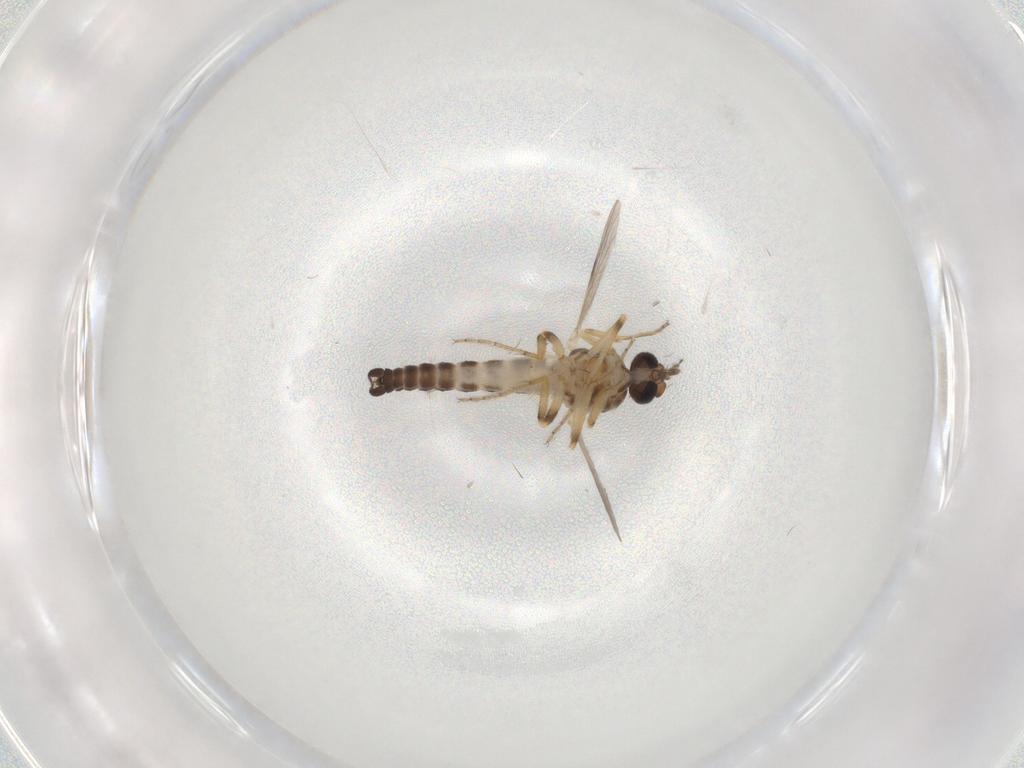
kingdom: Animalia
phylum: Arthropoda
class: Insecta
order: Diptera
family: Ceratopogonidae
